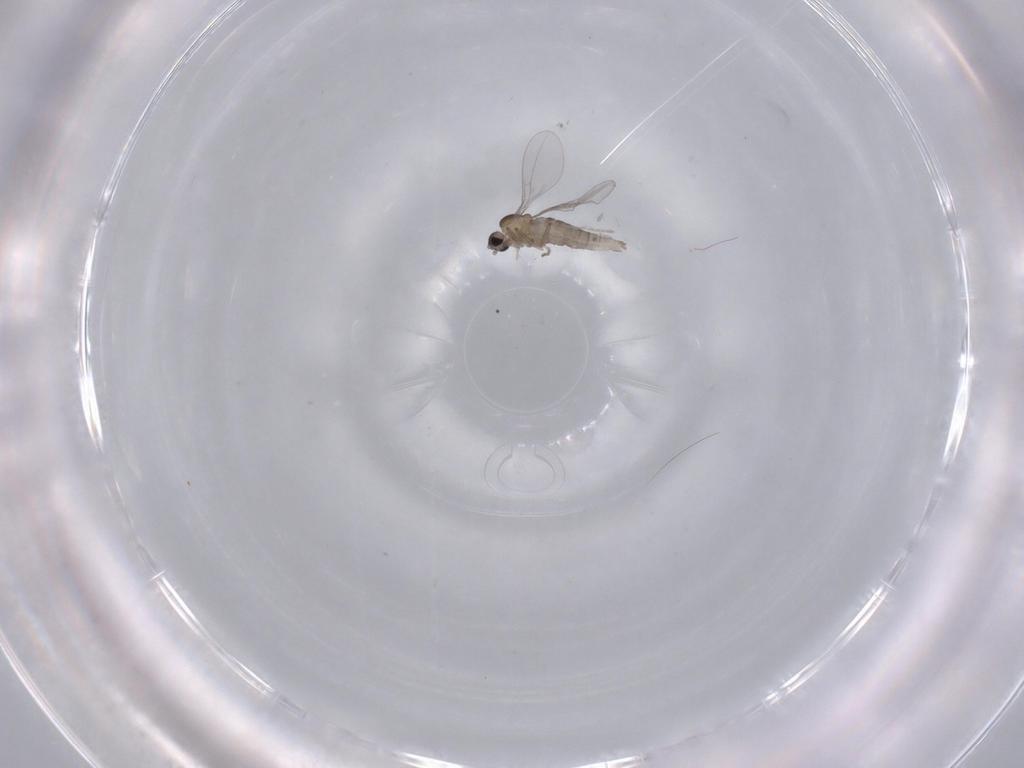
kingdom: Animalia
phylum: Arthropoda
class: Insecta
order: Diptera
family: Cecidomyiidae
